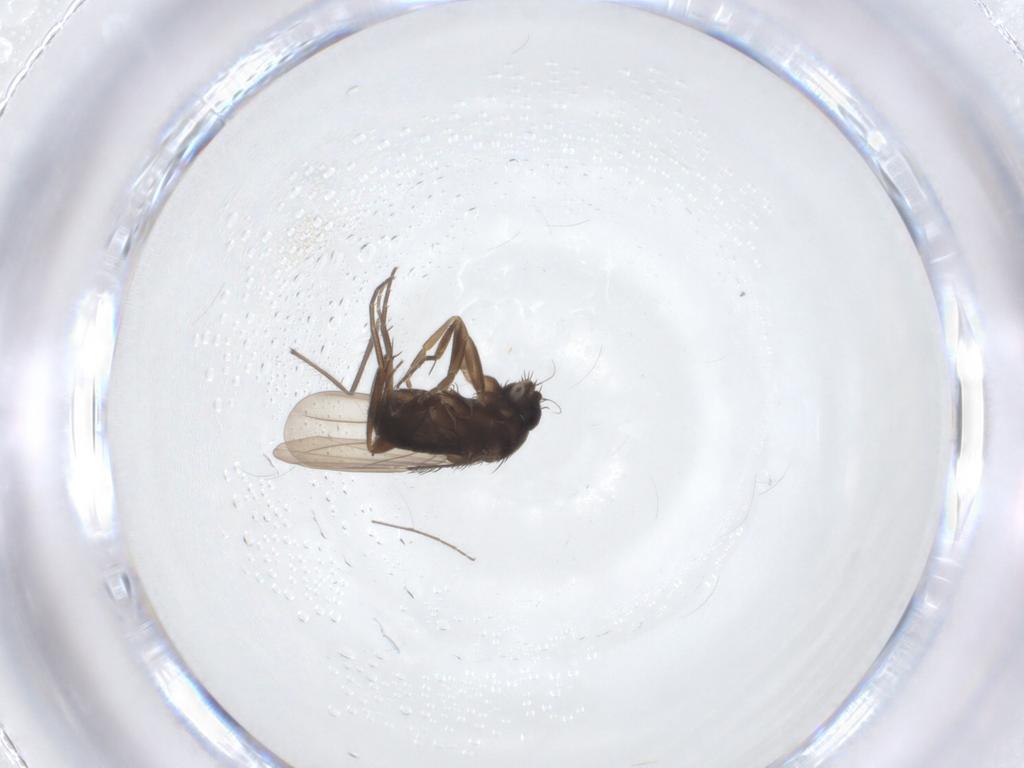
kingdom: Animalia
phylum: Arthropoda
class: Insecta
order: Diptera
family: Phoridae
